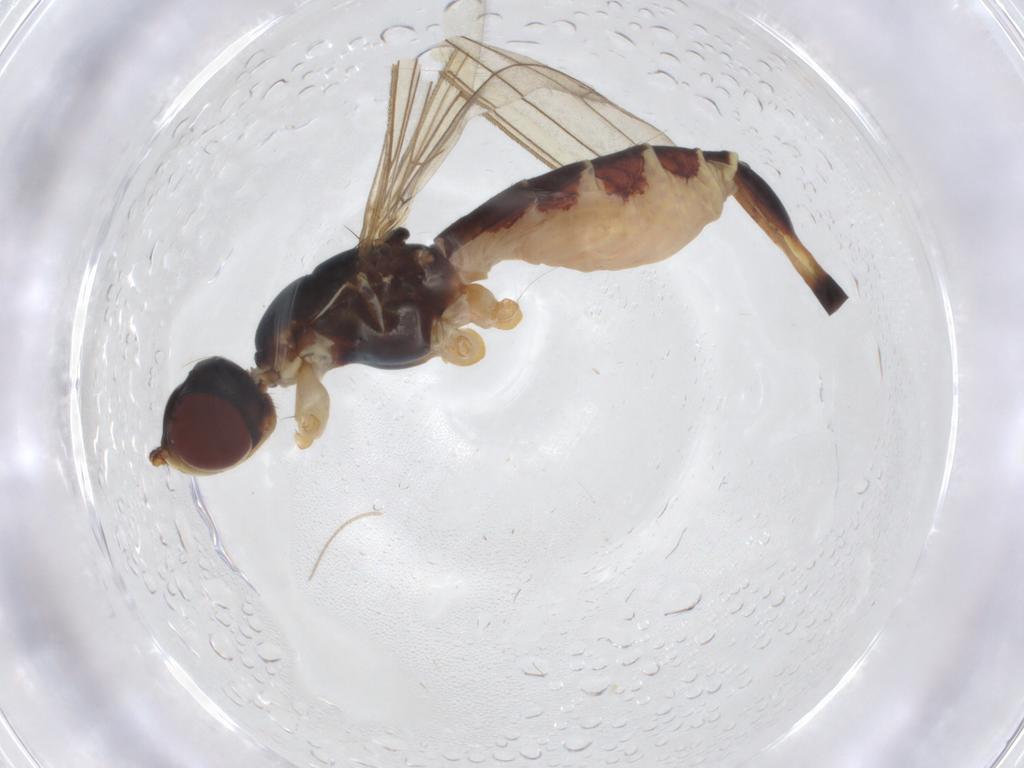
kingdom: Animalia
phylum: Arthropoda
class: Insecta
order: Diptera
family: Micropezidae
